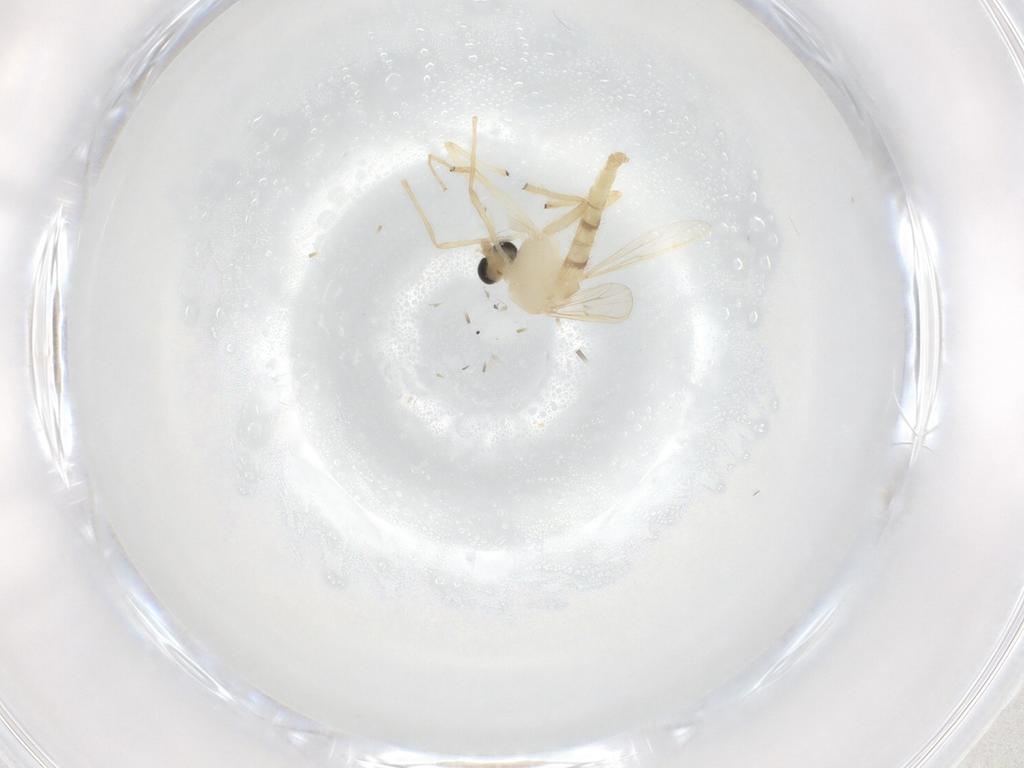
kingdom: Animalia
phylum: Arthropoda
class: Insecta
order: Diptera
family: Chironomidae
